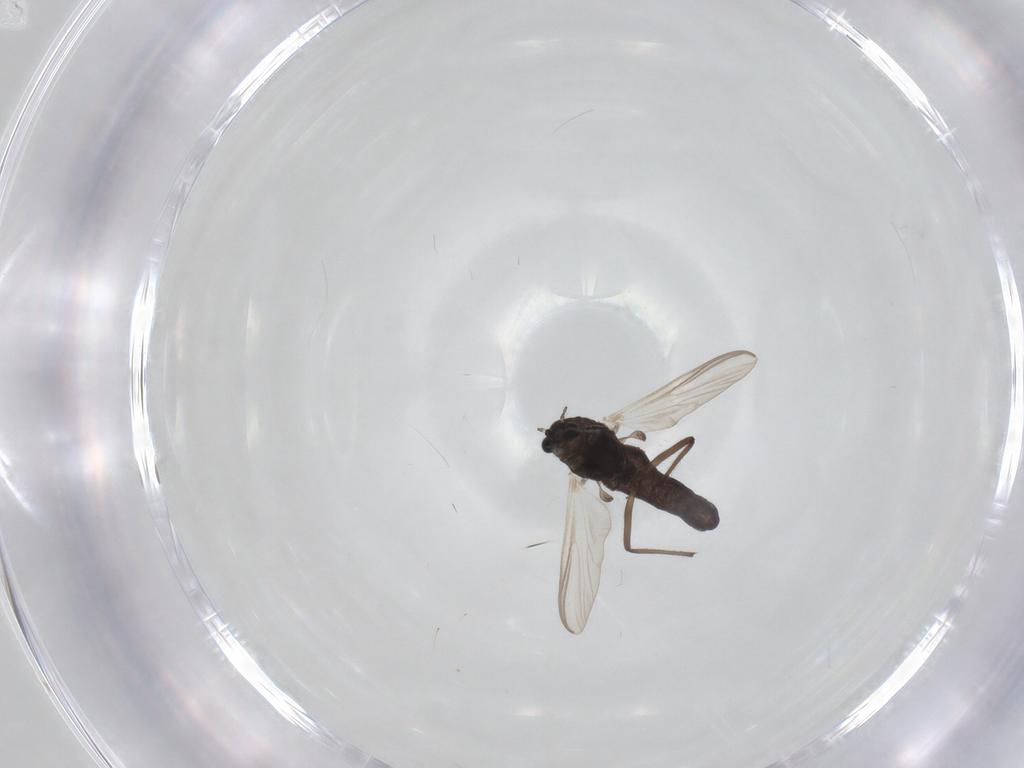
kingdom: Animalia
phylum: Arthropoda
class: Insecta
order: Diptera
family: Chironomidae
